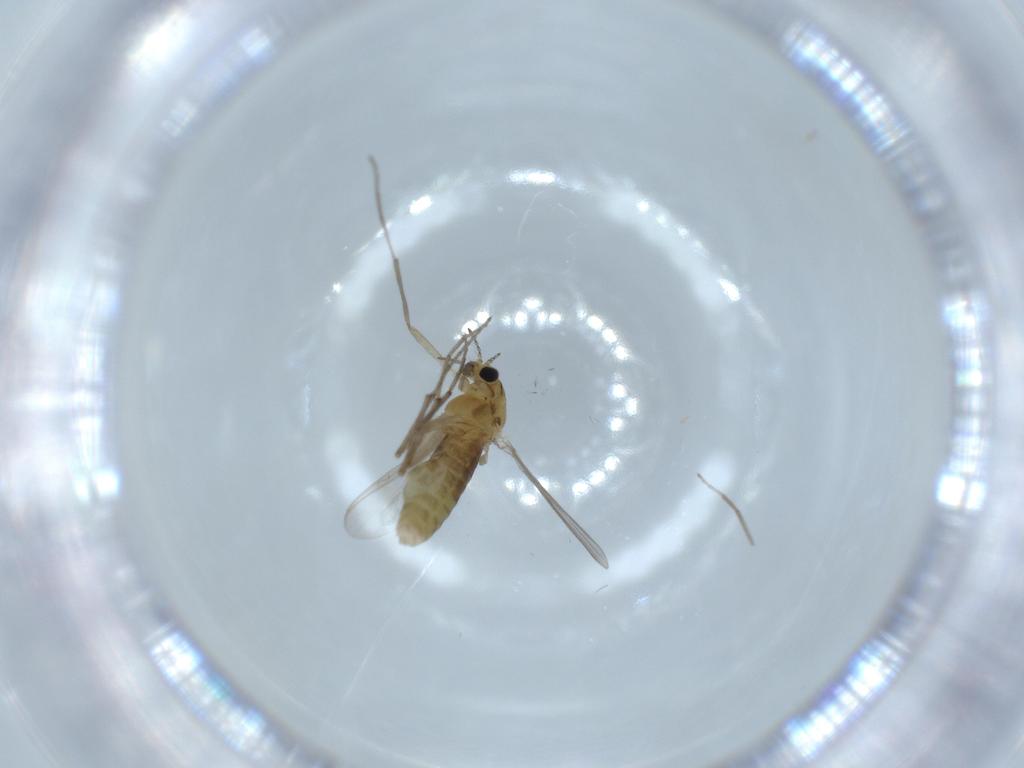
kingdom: Animalia
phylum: Arthropoda
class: Insecta
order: Diptera
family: Chironomidae
